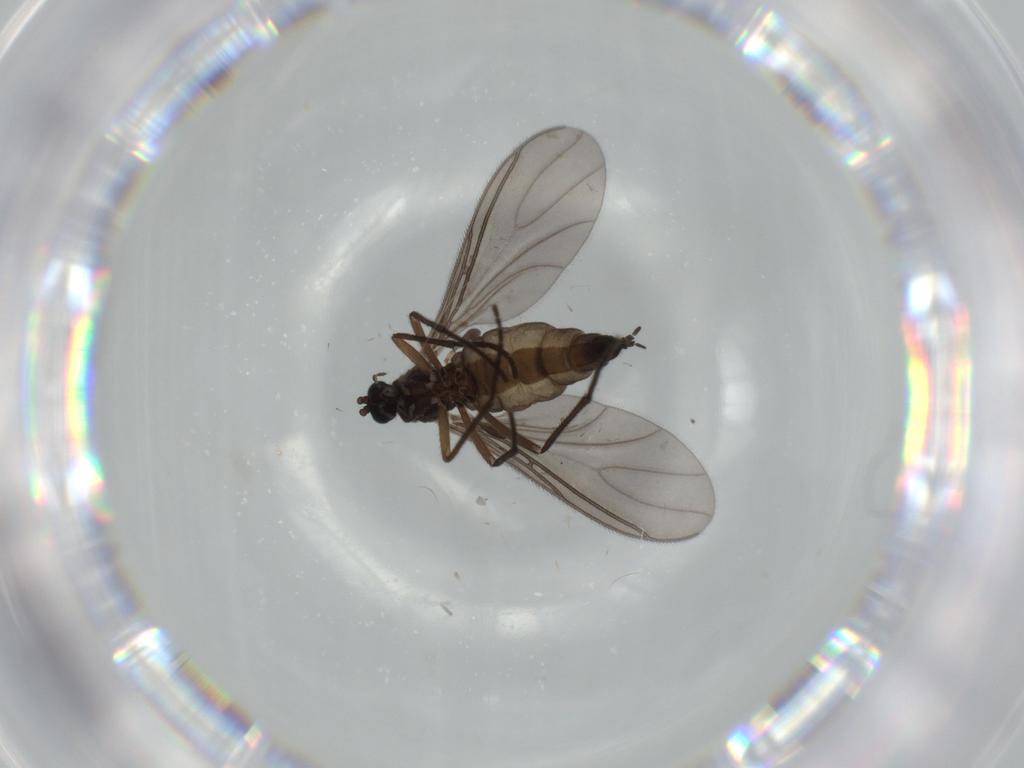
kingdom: Animalia
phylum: Arthropoda
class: Insecta
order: Diptera
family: Sciaridae
